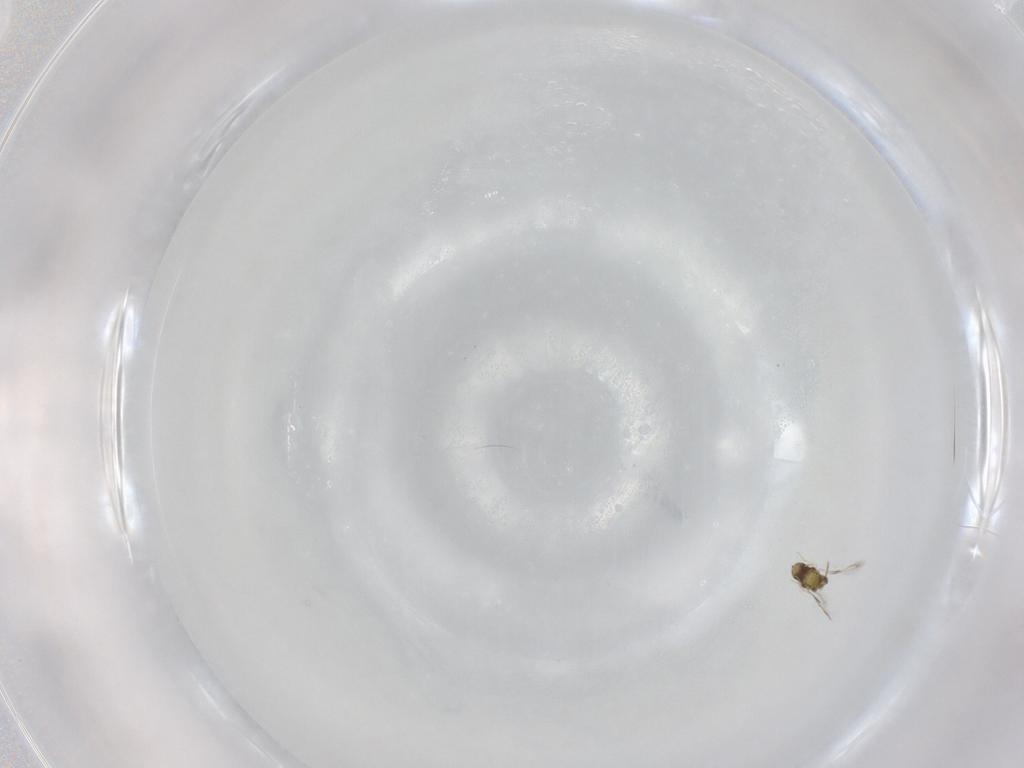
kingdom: Animalia
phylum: Arthropoda
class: Insecta
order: Hymenoptera
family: Aphelinidae
